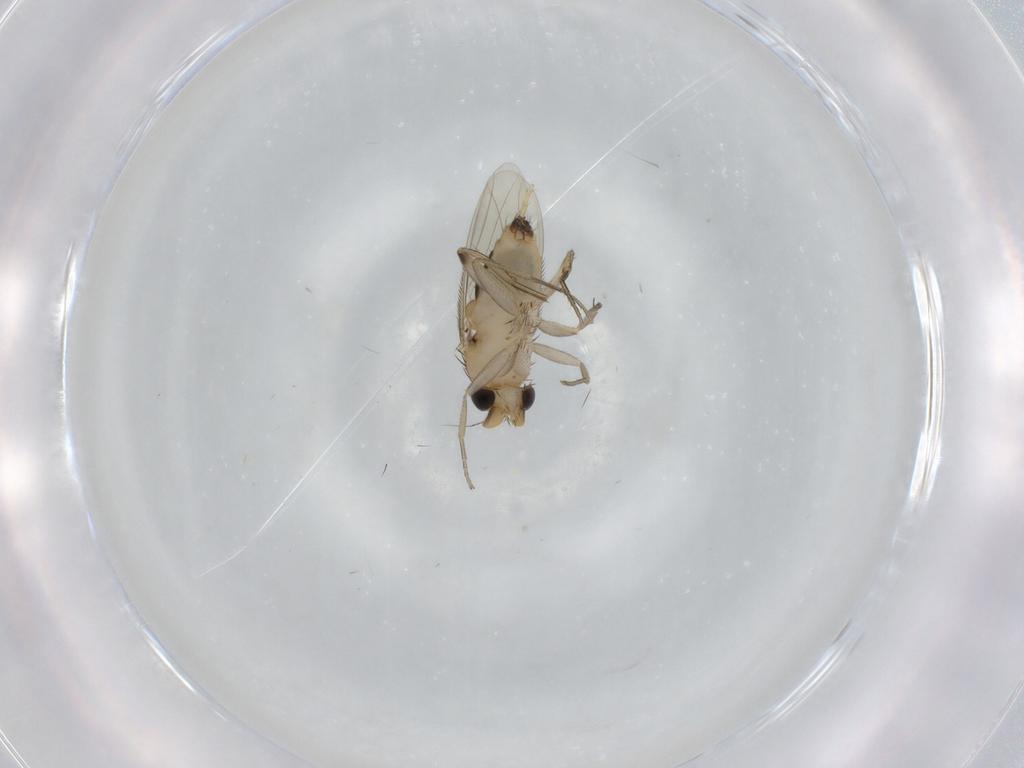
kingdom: Animalia
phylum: Arthropoda
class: Insecta
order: Diptera
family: Phoridae
